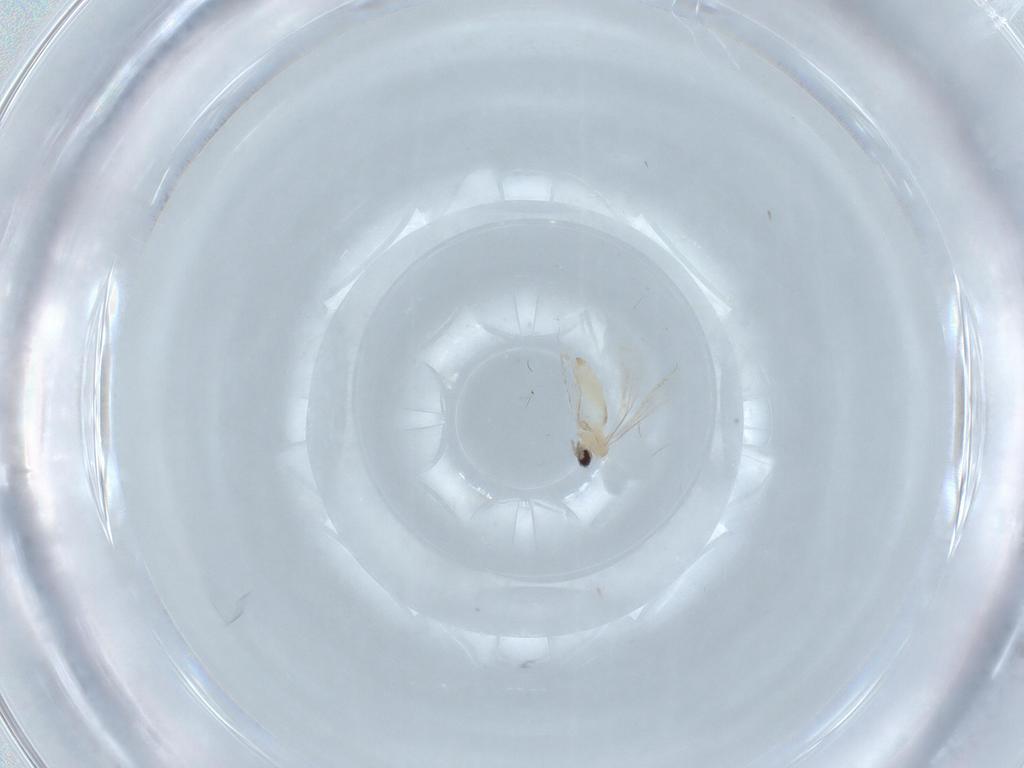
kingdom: Animalia
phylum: Arthropoda
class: Insecta
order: Diptera
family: Cecidomyiidae
